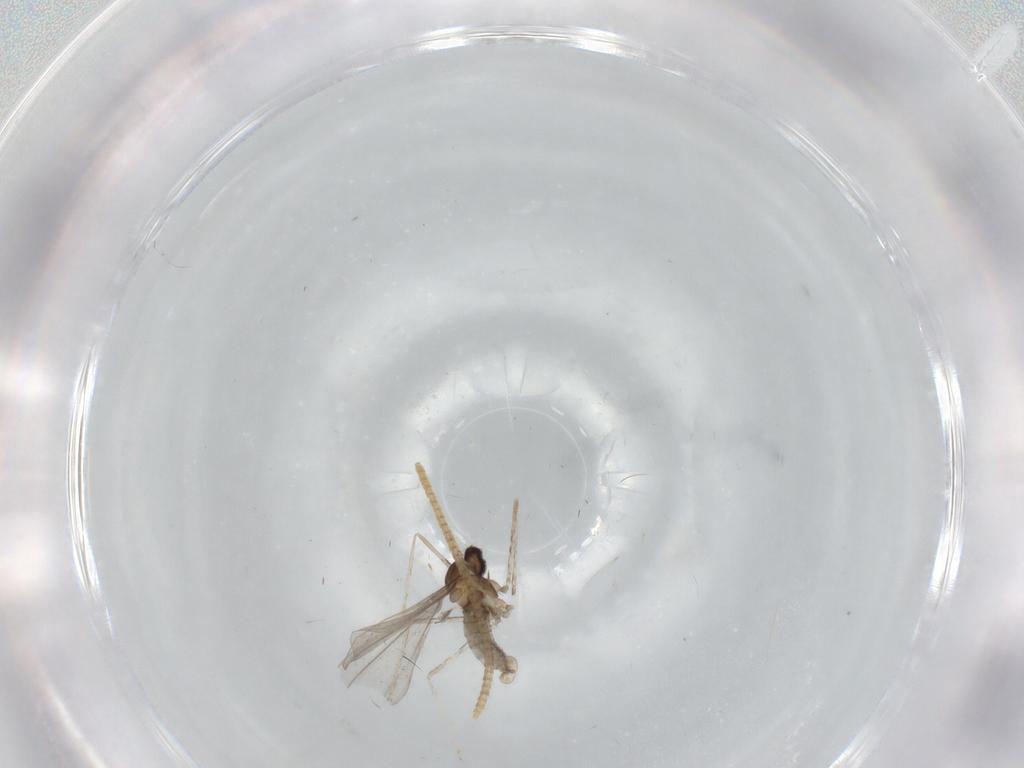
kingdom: Animalia
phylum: Arthropoda
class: Insecta
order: Diptera
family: Cecidomyiidae
